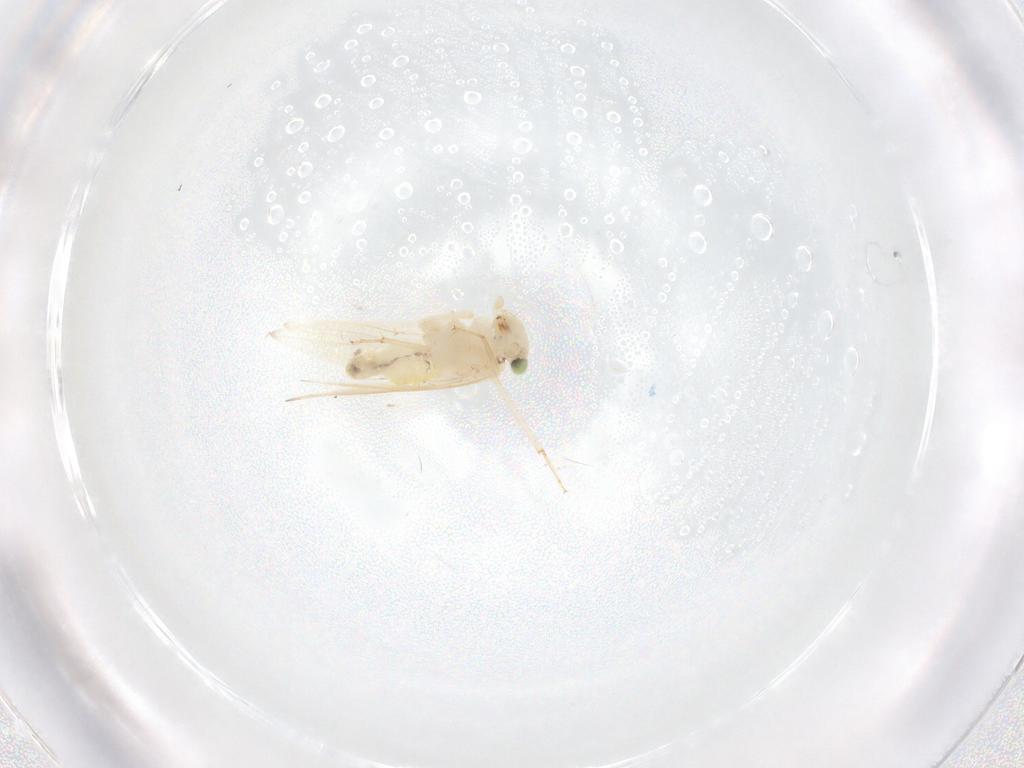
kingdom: Animalia
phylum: Arthropoda
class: Insecta
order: Psocodea
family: Lepidopsocidae
